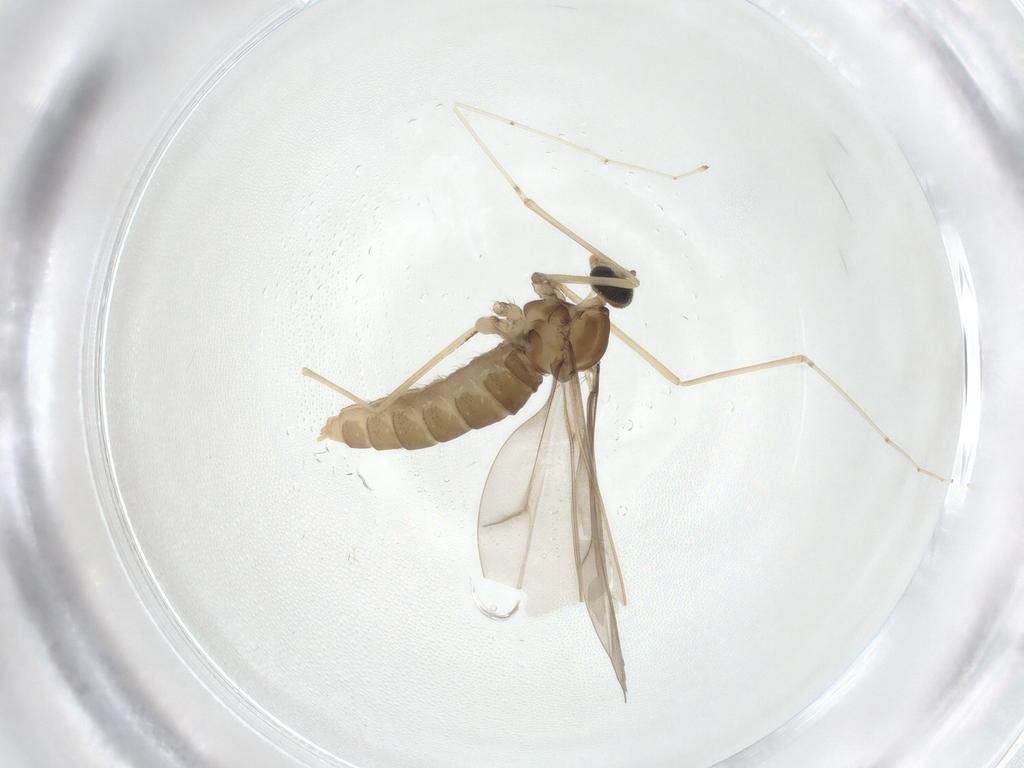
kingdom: Animalia
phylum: Arthropoda
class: Insecta
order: Diptera
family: Cecidomyiidae
